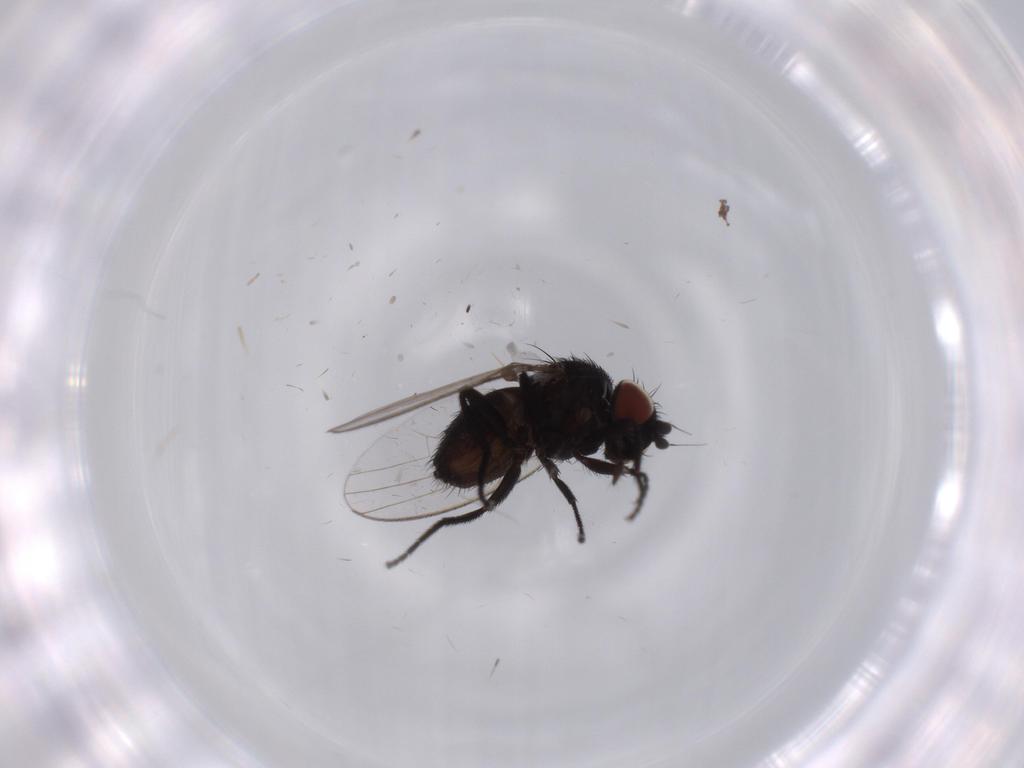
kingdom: Animalia
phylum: Arthropoda
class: Insecta
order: Diptera
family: Milichiidae
